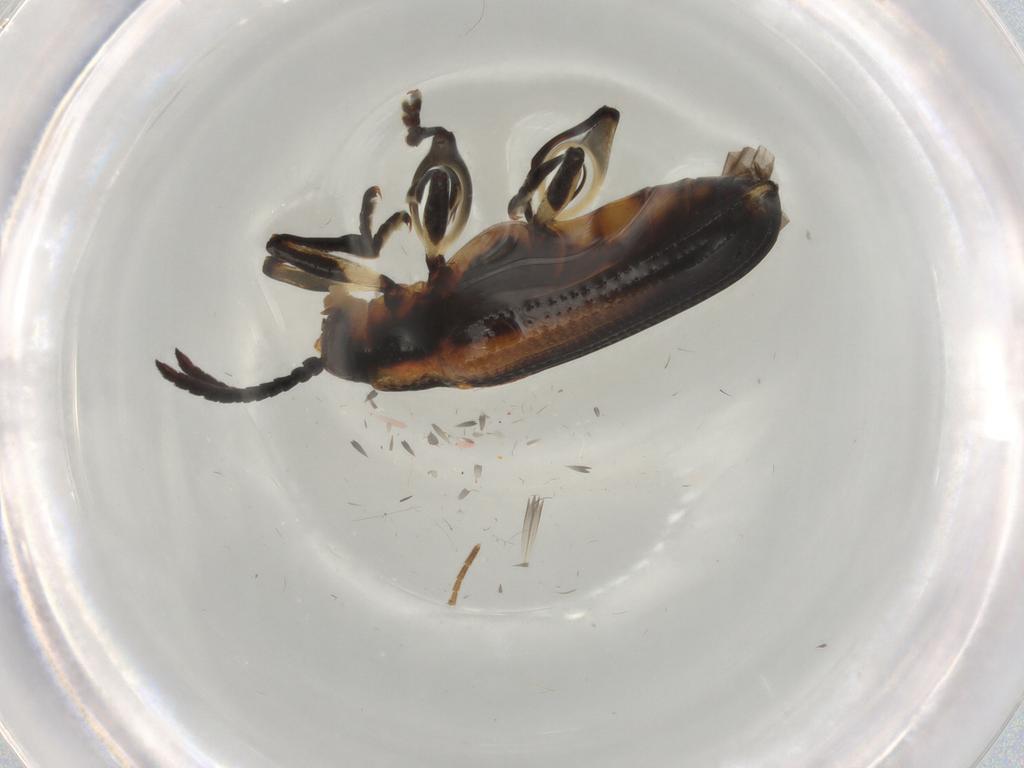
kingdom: Animalia
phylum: Arthropoda
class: Insecta
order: Coleoptera
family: Chrysomelidae
